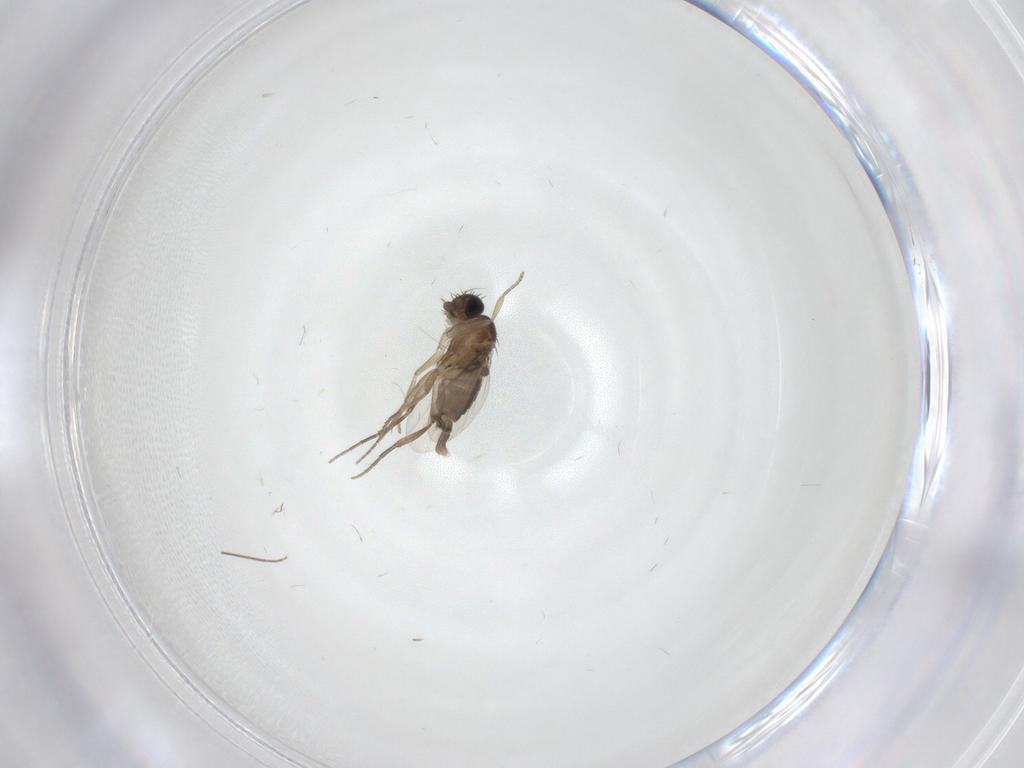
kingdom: Animalia
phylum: Arthropoda
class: Insecta
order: Diptera
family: Phoridae
